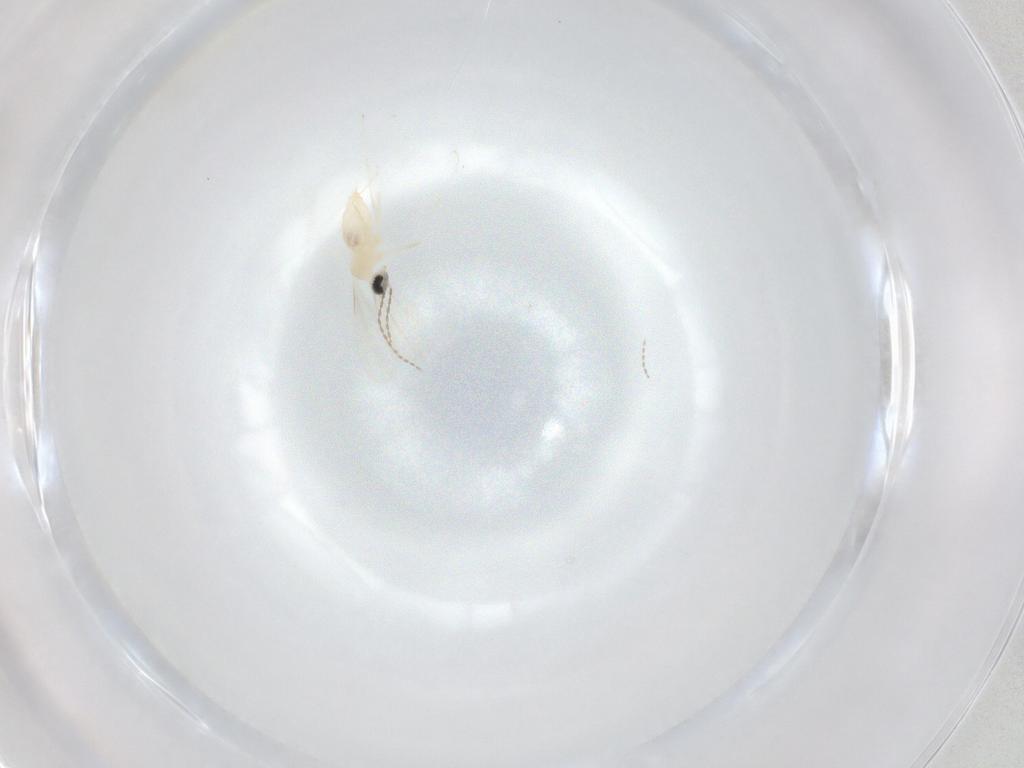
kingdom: Animalia
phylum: Arthropoda
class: Insecta
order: Diptera
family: Cecidomyiidae
